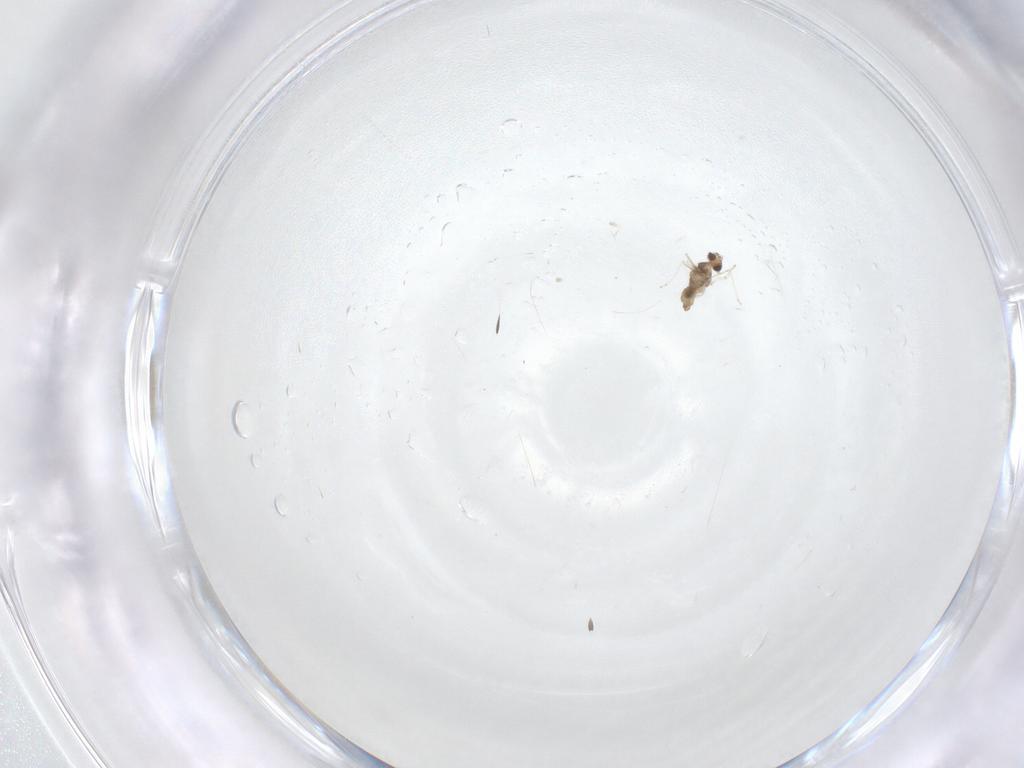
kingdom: Animalia
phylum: Arthropoda
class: Insecta
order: Diptera
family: Cecidomyiidae
